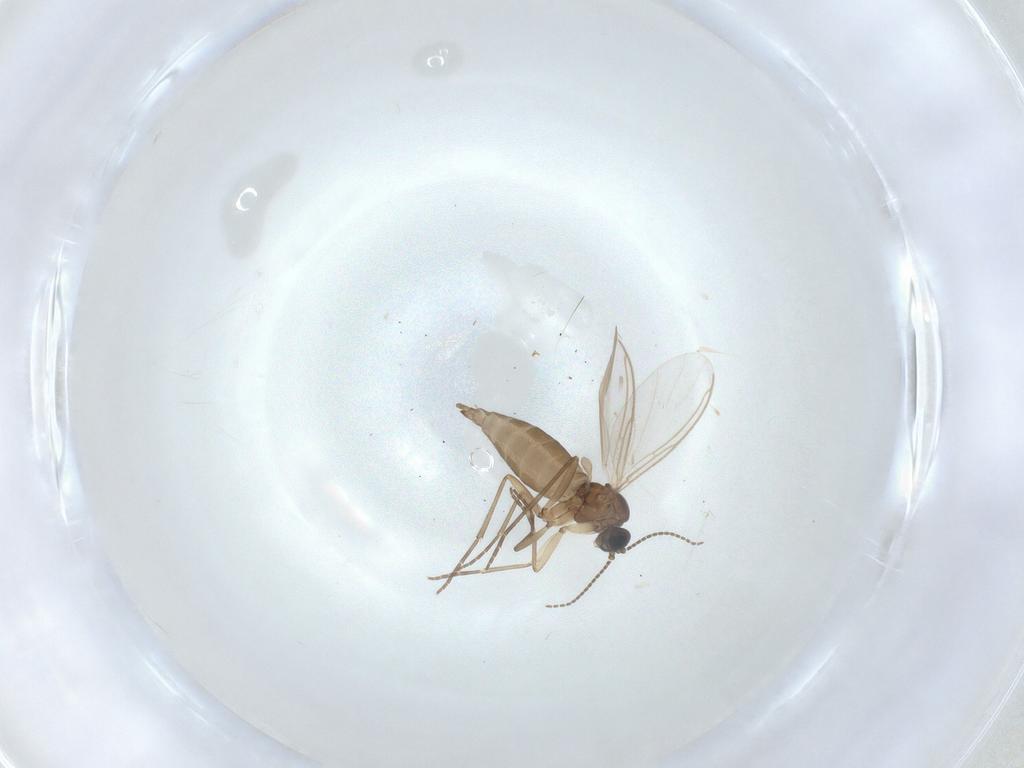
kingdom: Animalia
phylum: Arthropoda
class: Insecta
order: Diptera
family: Sciaridae
